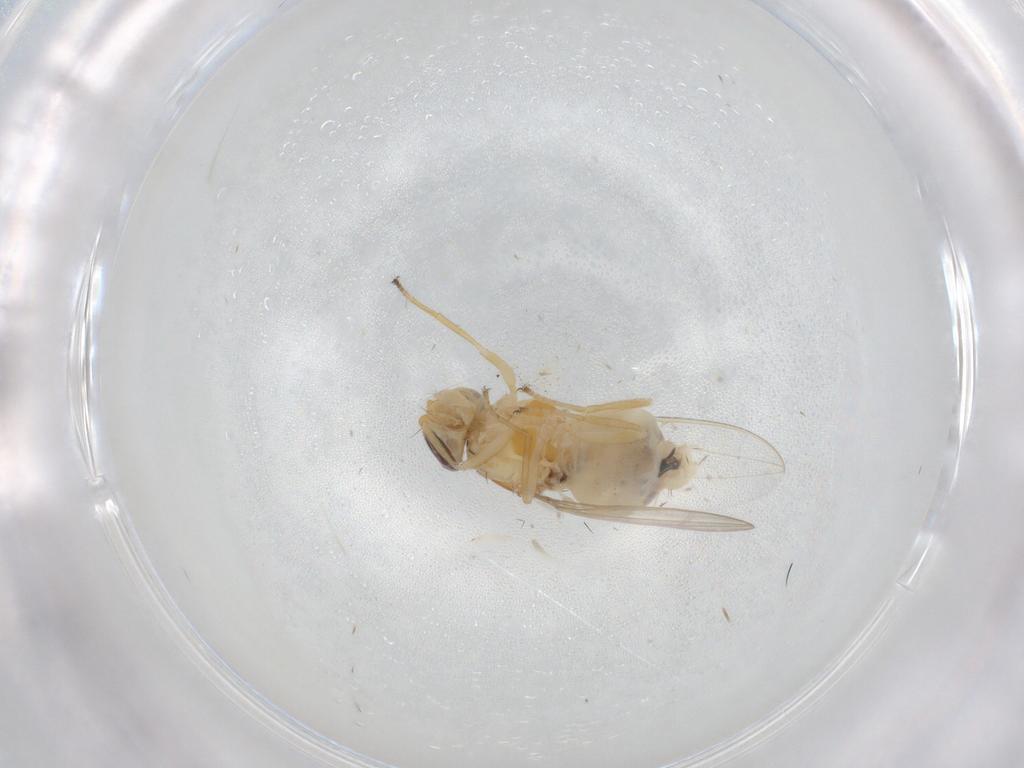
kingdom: Animalia
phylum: Arthropoda
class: Insecta
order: Diptera
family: Asteiidae
